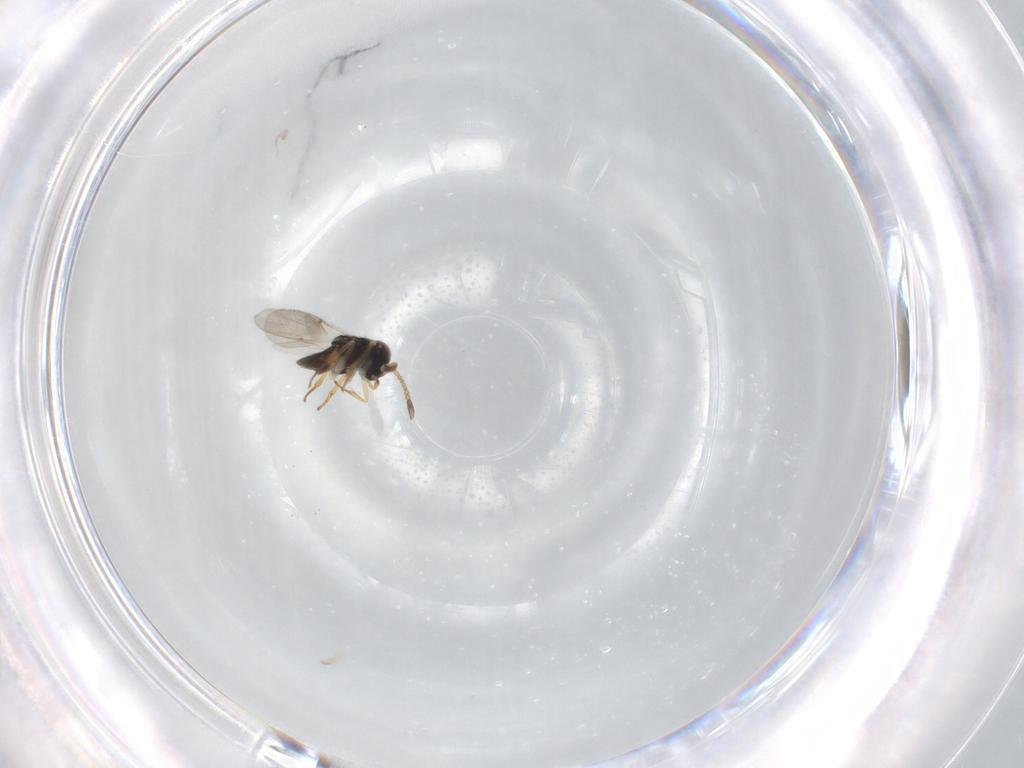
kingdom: Animalia
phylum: Arthropoda
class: Insecta
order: Hymenoptera
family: Encyrtidae
